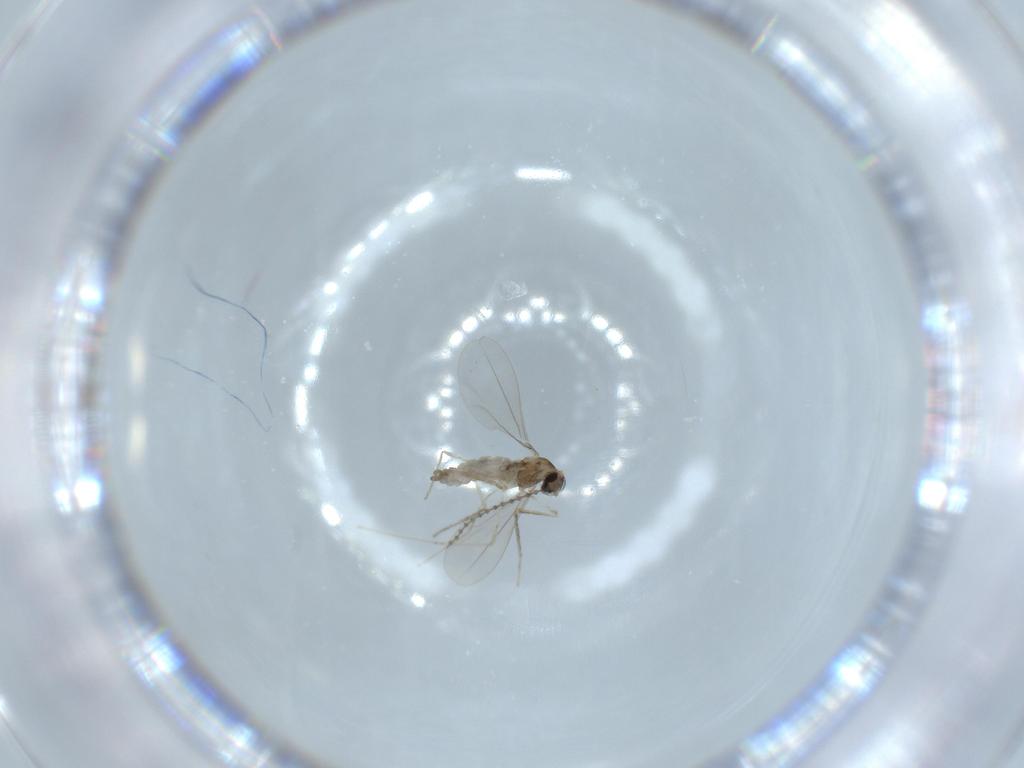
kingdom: Animalia
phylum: Arthropoda
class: Insecta
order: Diptera
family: Cecidomyiidae
